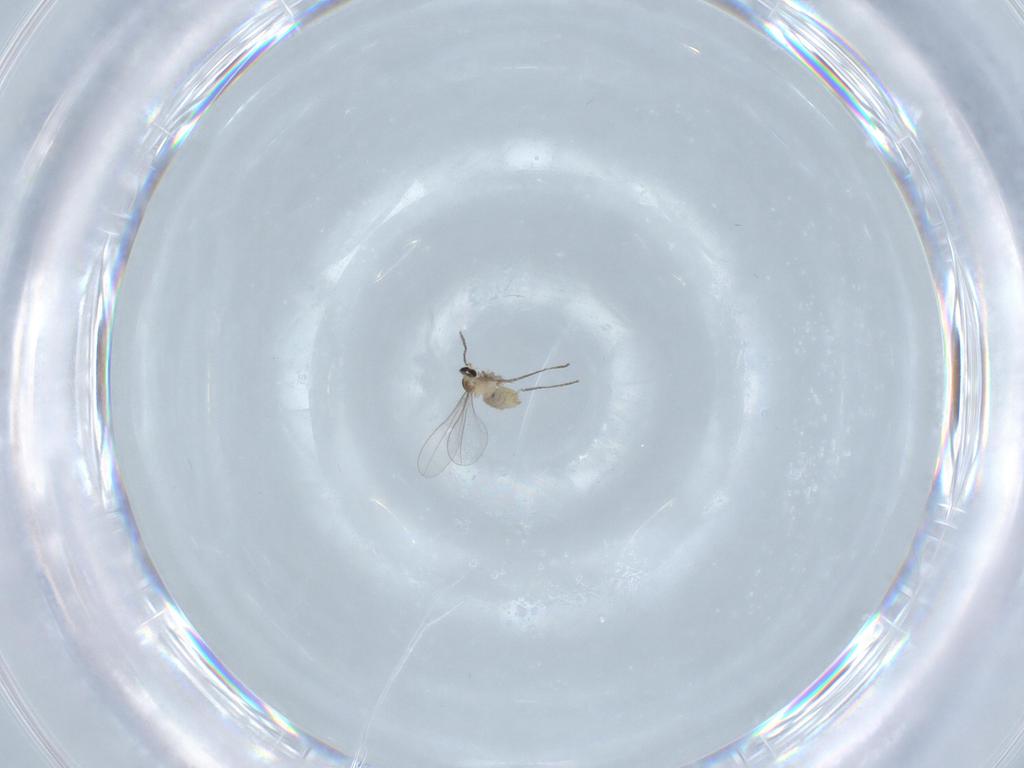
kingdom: Animalia
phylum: Arthropoda
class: Insecta
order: Diptera
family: Cecidomyiidae
